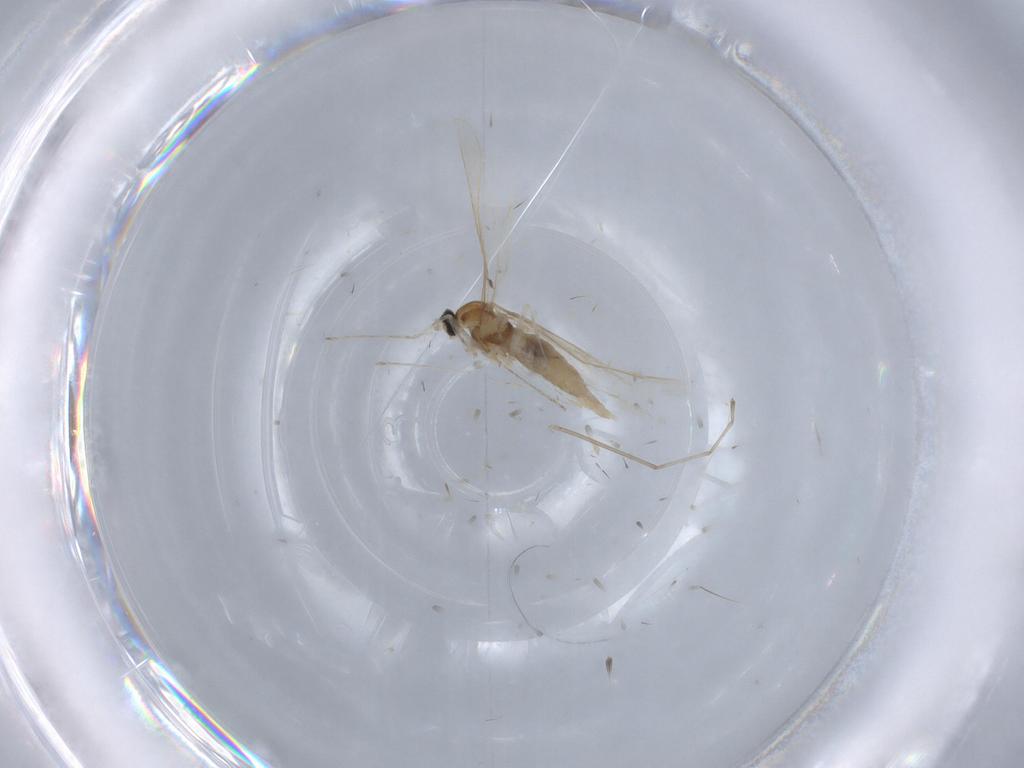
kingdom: Animalia
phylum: Arthropoda
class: Insecta
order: Diptera
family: Cecidomyiidae
